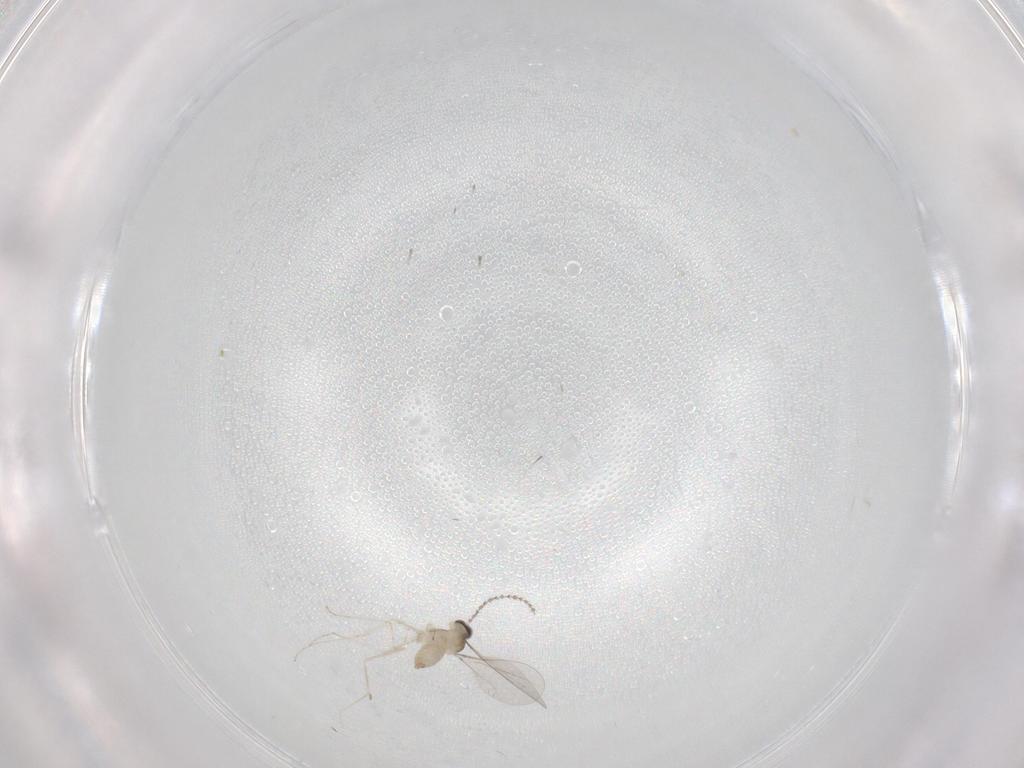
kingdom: Animalia
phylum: Arthropoda
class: Insecta
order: Diptera
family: Cecidomyiidae
